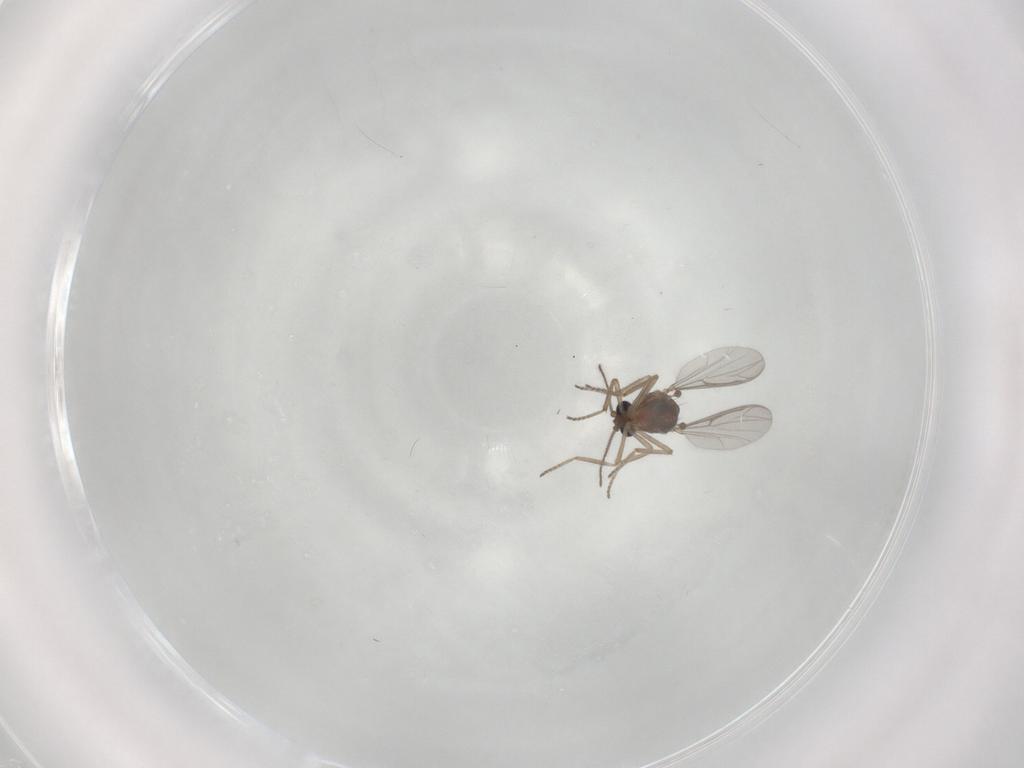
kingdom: Animalia
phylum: Arthropoda
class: Insecta
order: Diptera
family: Ceratopogonidae
